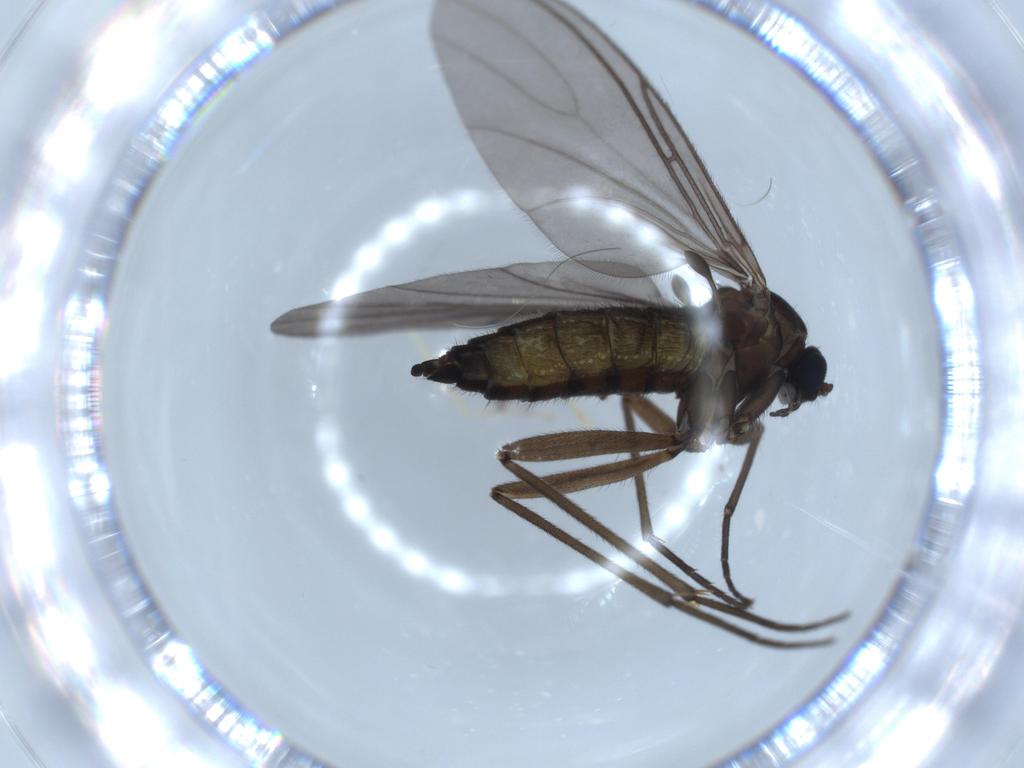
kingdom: Animalia
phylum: Arthropoda
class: Insecta
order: Diptera
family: Sciaridae
